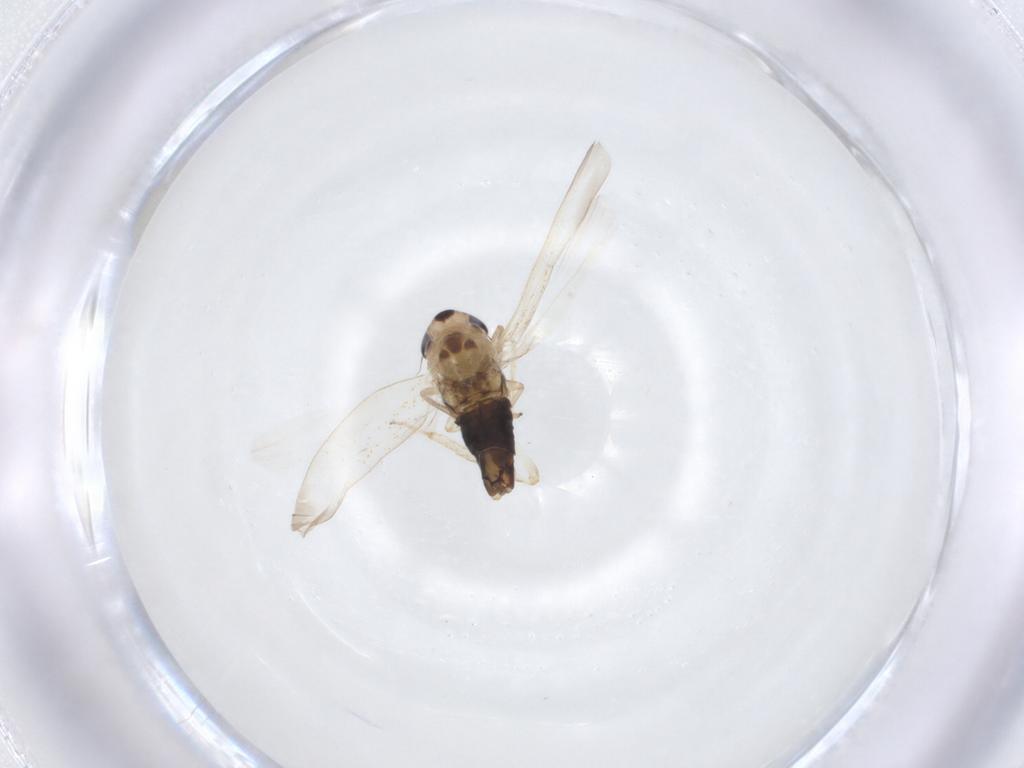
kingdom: Animalia
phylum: Arthropoda
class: Insecta
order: Hemiptera
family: Cicadellidae
